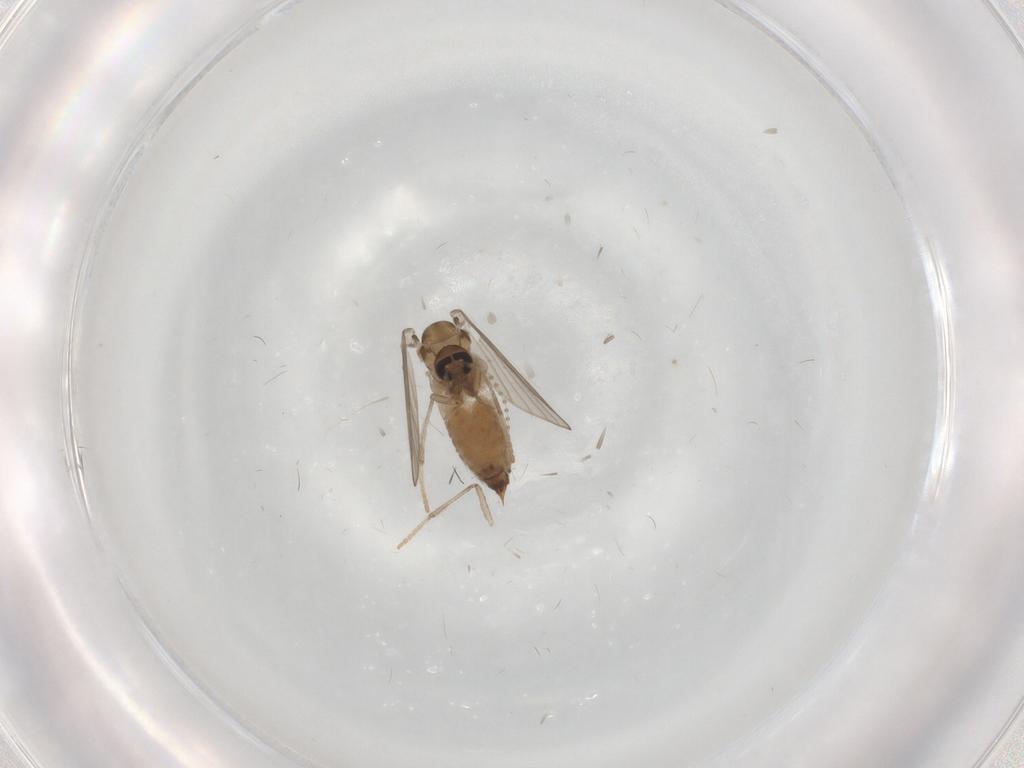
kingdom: Animalia
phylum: Arthropoda
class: Insecta
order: Diptera
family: Psychodidae
